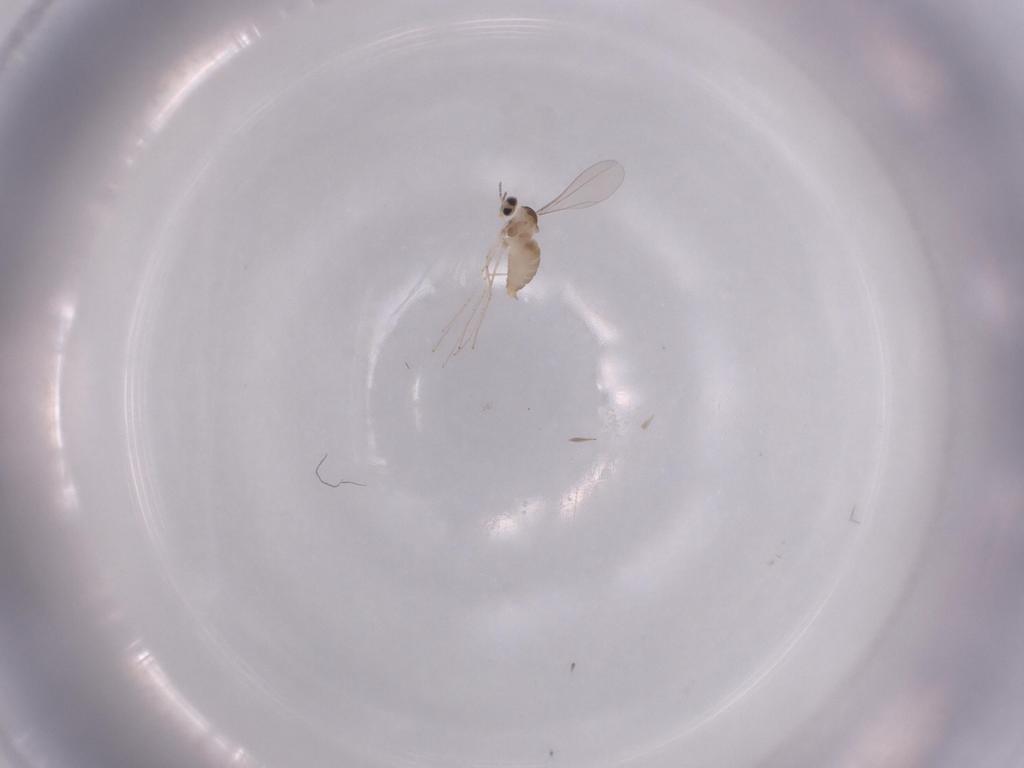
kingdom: Animalia
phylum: Arthropoda
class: Insecta
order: Diptera
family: Cecidomyiidae
